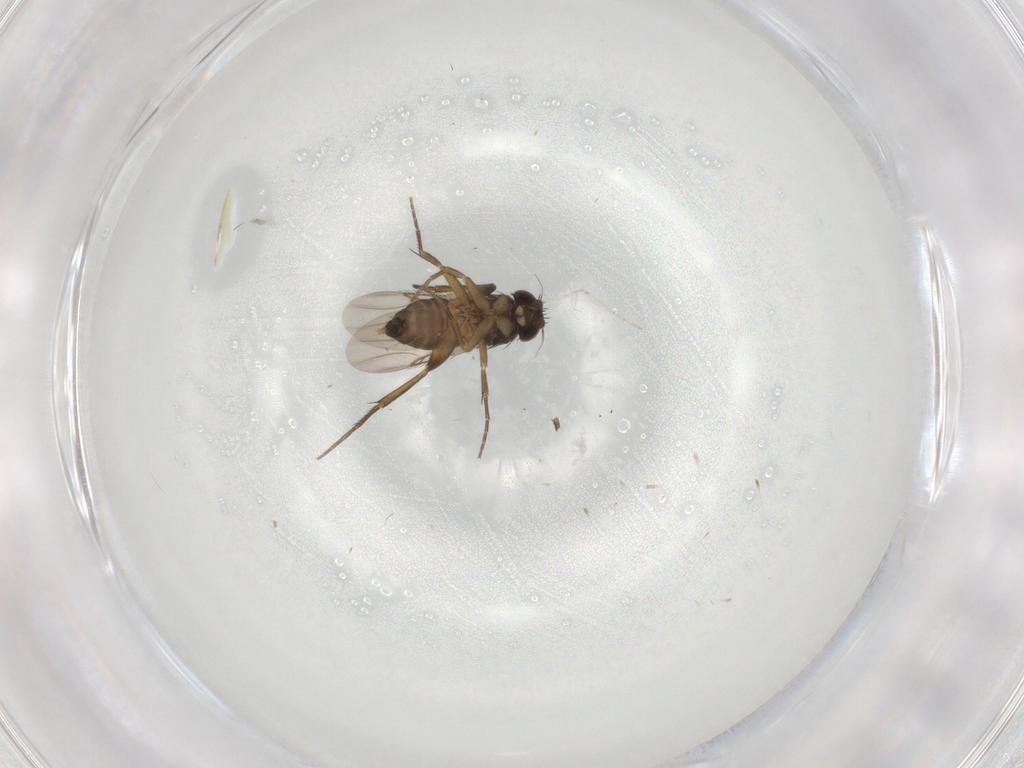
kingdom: Animalia
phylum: Arthropoda
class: Insecta
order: Diptera
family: Phoridae
